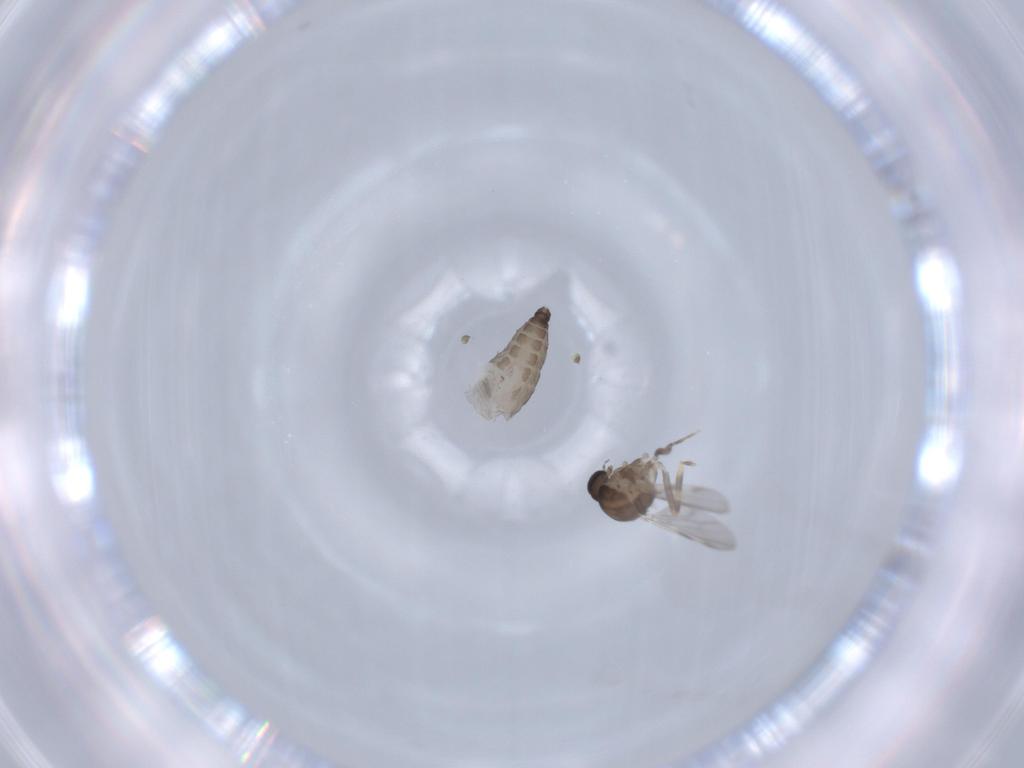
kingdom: Animalia
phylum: Arthropoda
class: Insecta
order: Diptera
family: Ceratopogonidae
